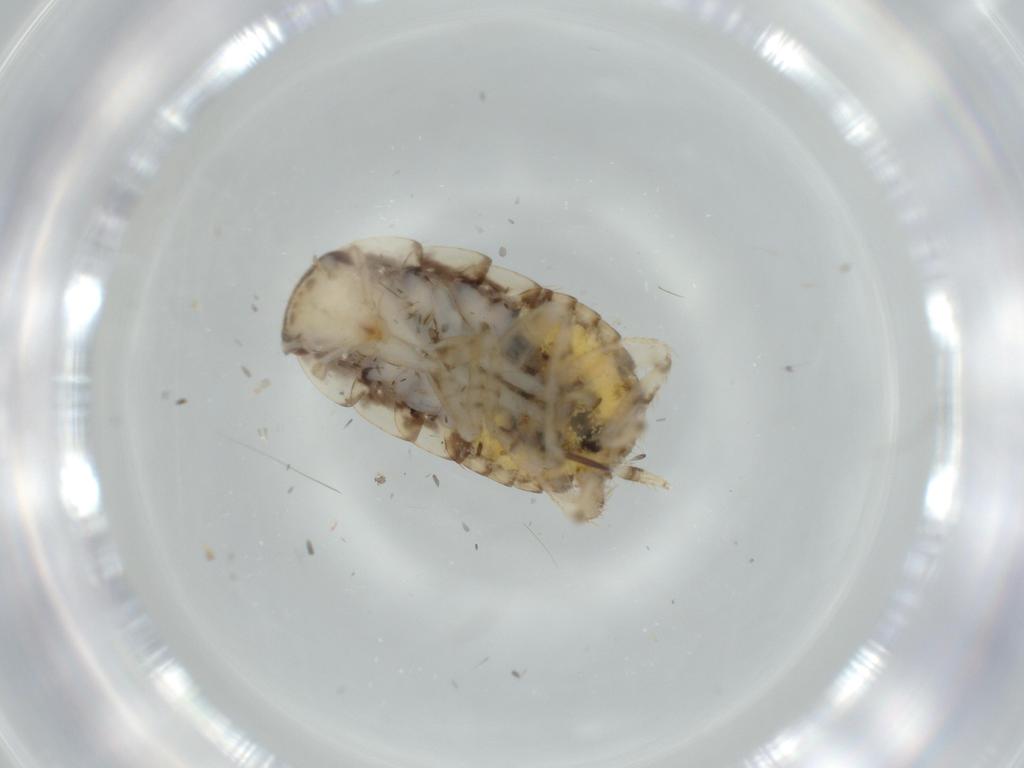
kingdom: Animalia
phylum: Arthropoda
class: Insecta
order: Blattodea
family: Ectobiidae
